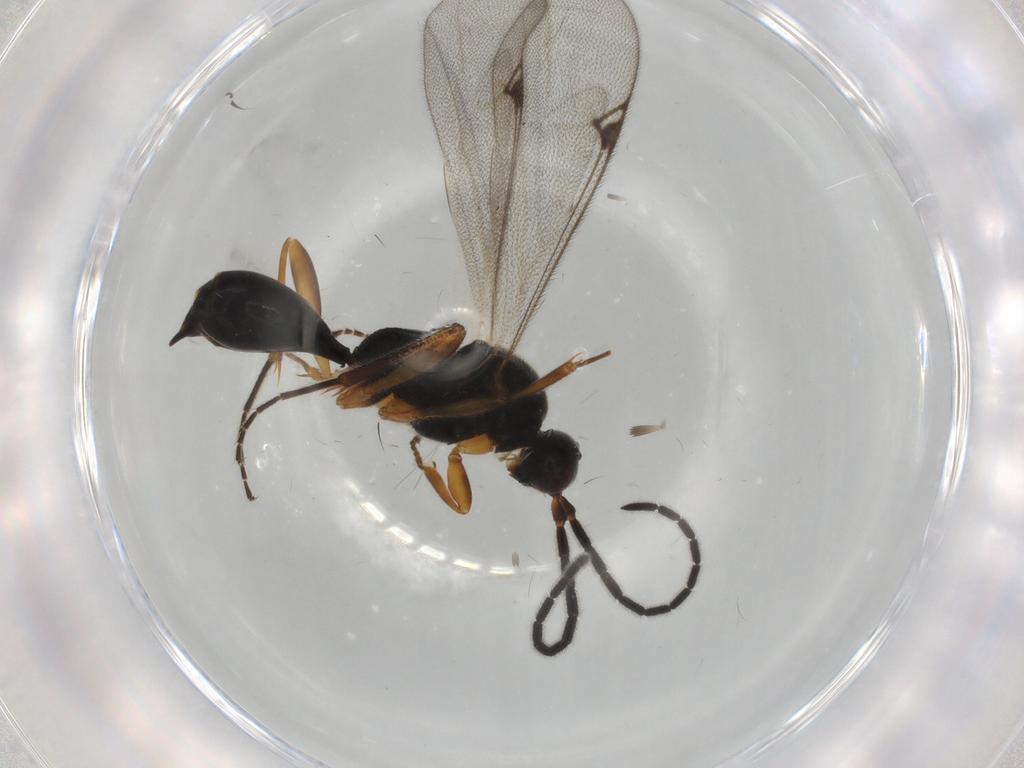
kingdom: Animalia
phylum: Arthropoda
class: Insecta
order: Hymenoptera
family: Proctotrupidae
